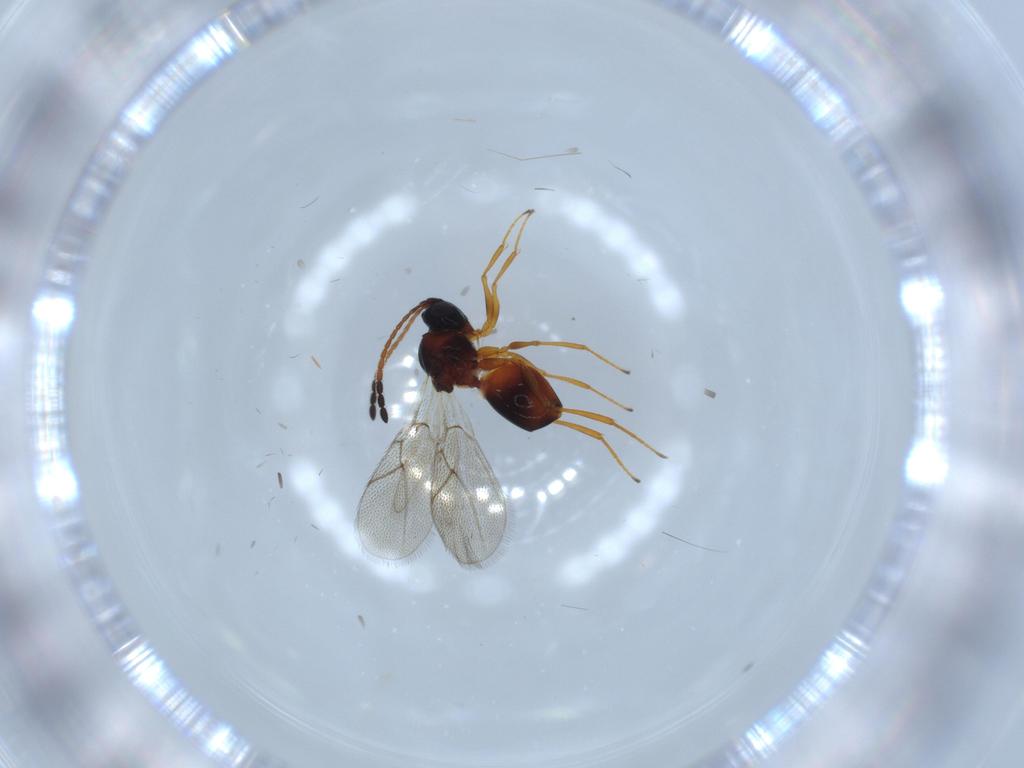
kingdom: Animalia
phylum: Arthropoda
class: Insecta
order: Hymenoptera
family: Figitidae
